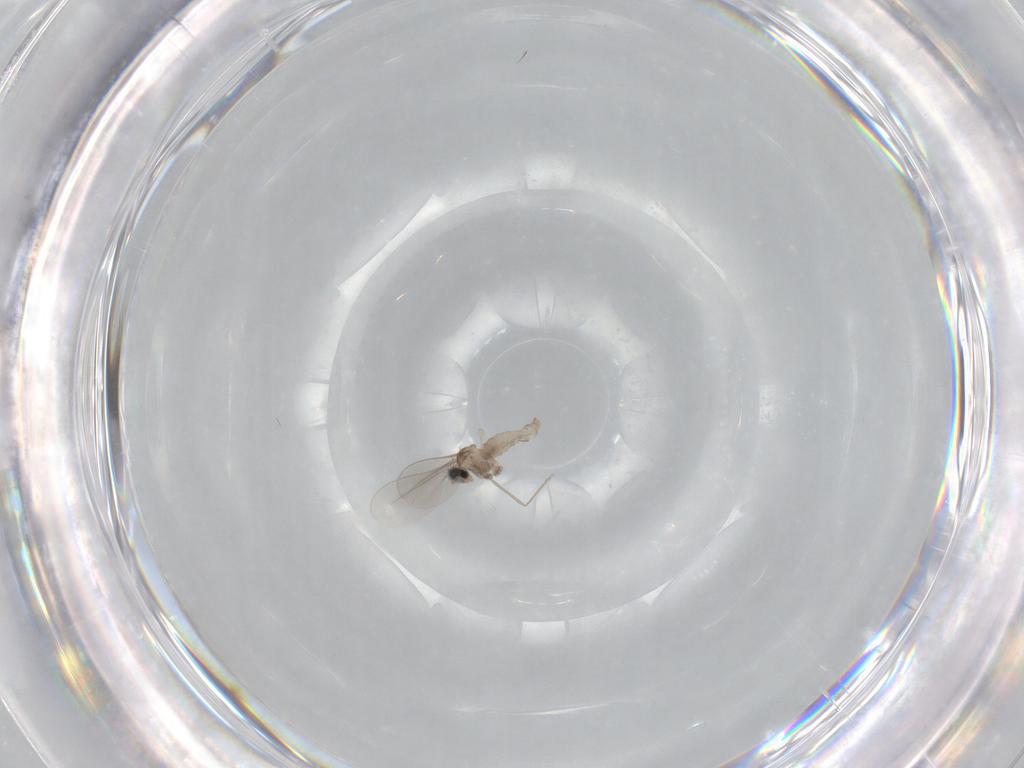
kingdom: Animalia
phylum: Arthropoda
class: Insecta
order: Diptera
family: Cecidomyiidae
